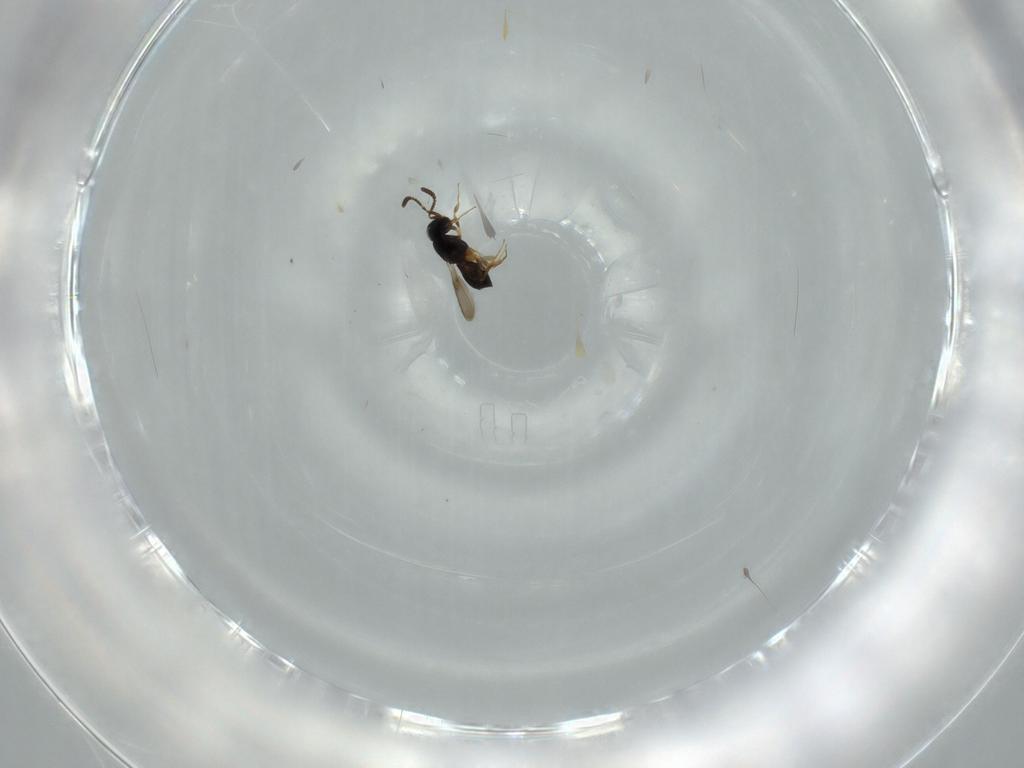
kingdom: Animalia
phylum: Arthropoda
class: Insecta
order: Hymenoptera
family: Scelionidae
